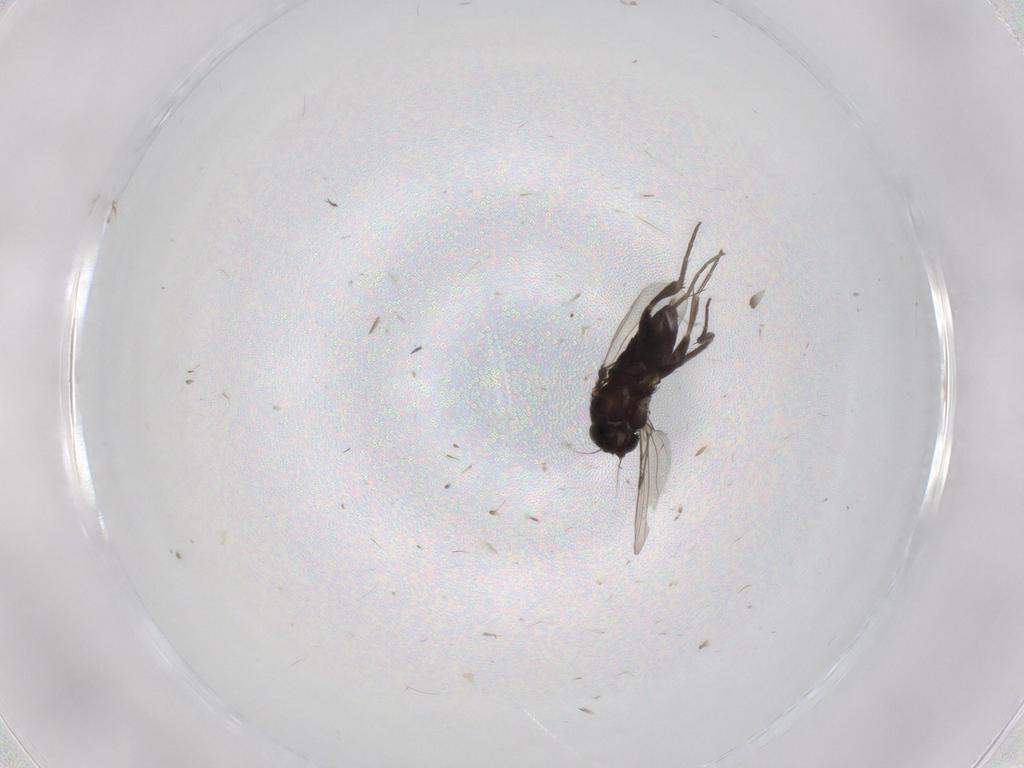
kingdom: Animalia
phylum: Arthropoda
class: Insecta
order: Diptera
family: Phoridae
